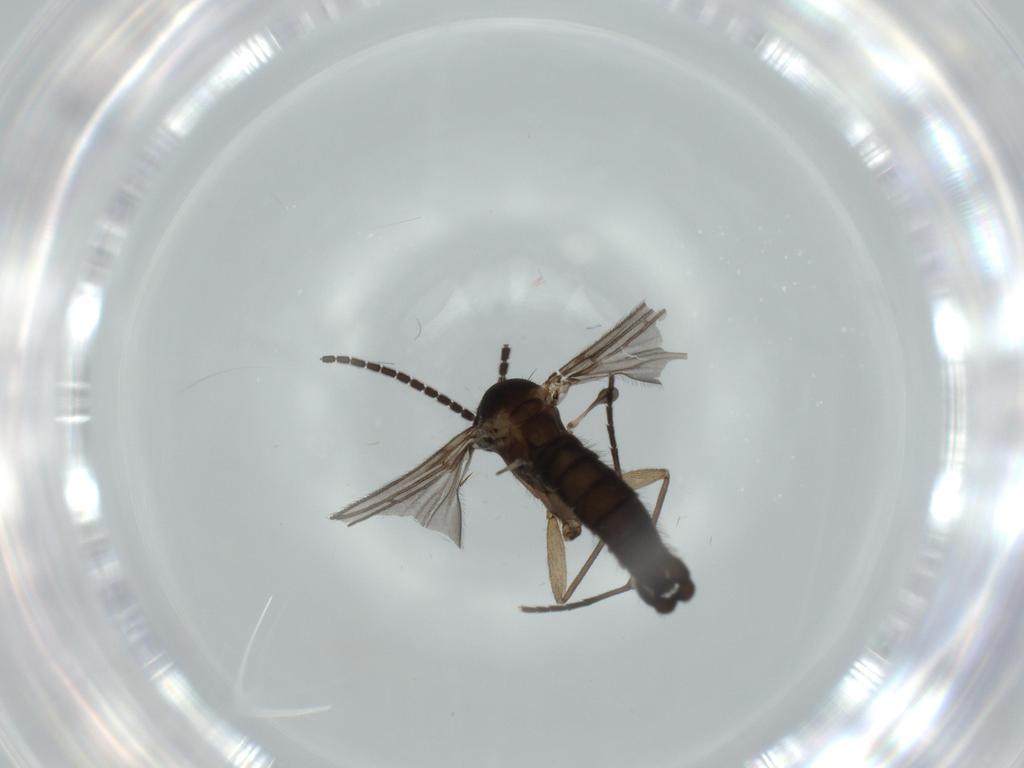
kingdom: Animalia
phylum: Arthropoda
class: Insecta
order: Diptera
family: Sciaridae
